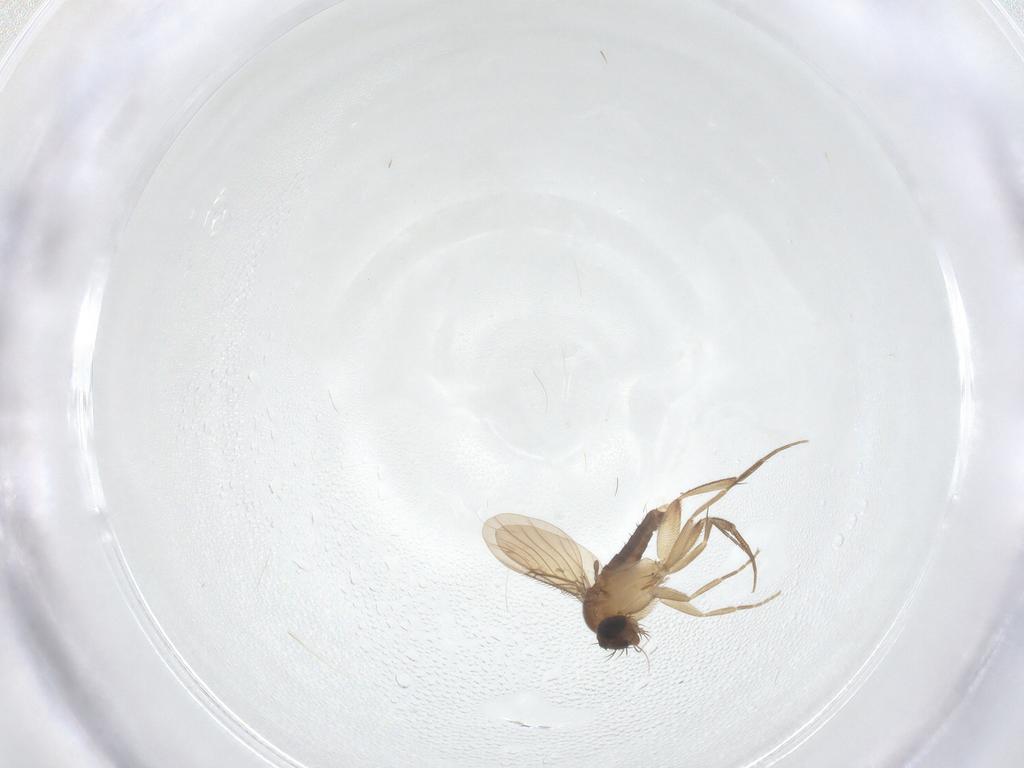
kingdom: Animalia
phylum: Arthropoda
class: Insecta
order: Diptera
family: Phoridae
